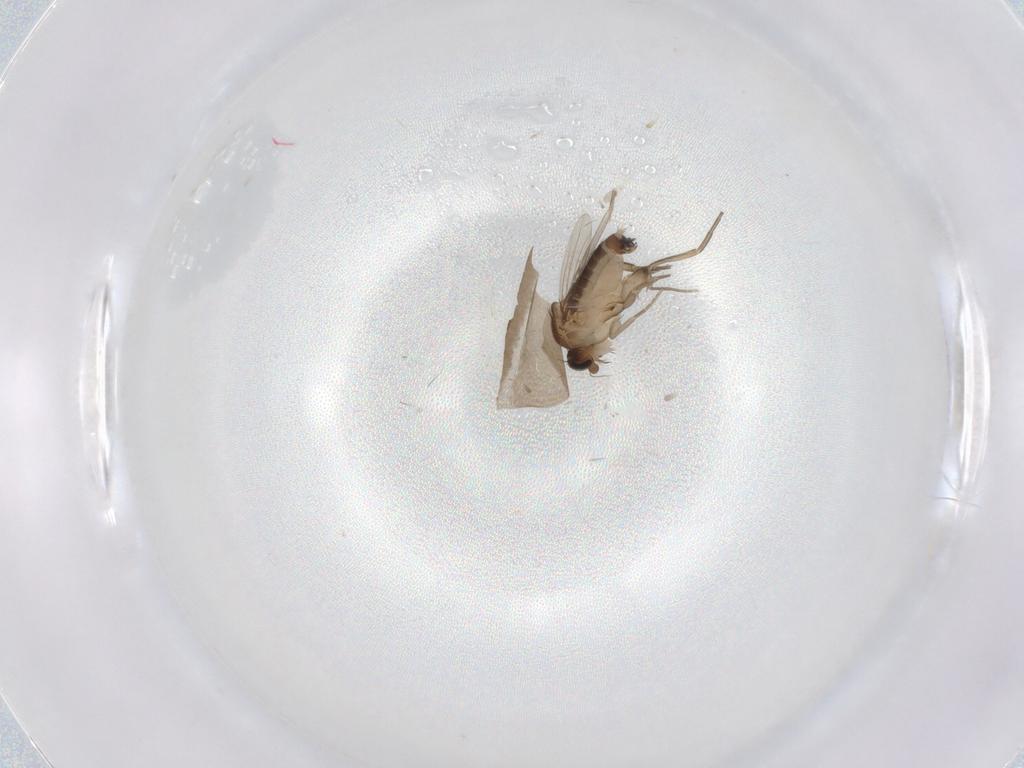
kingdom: Animalia
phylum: Arthropoda
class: Insecta
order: Diptera
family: Phoridae
